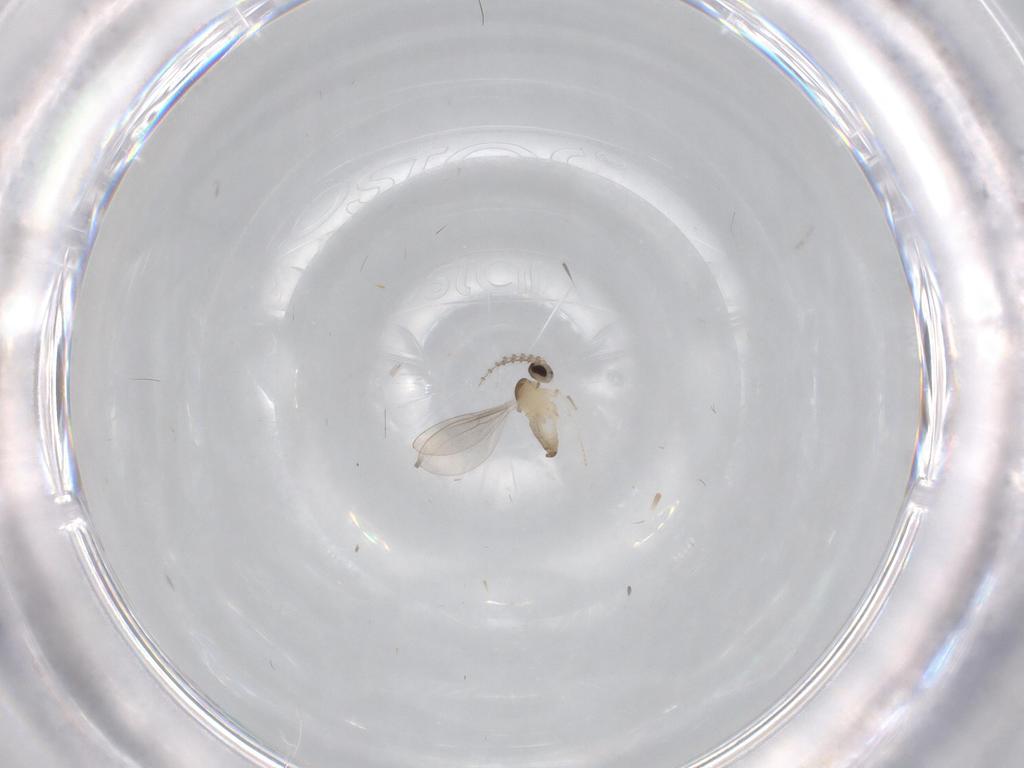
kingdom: Animalia
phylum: Arthropoda
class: Insecta
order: Diptera
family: Cecidomyiidae
